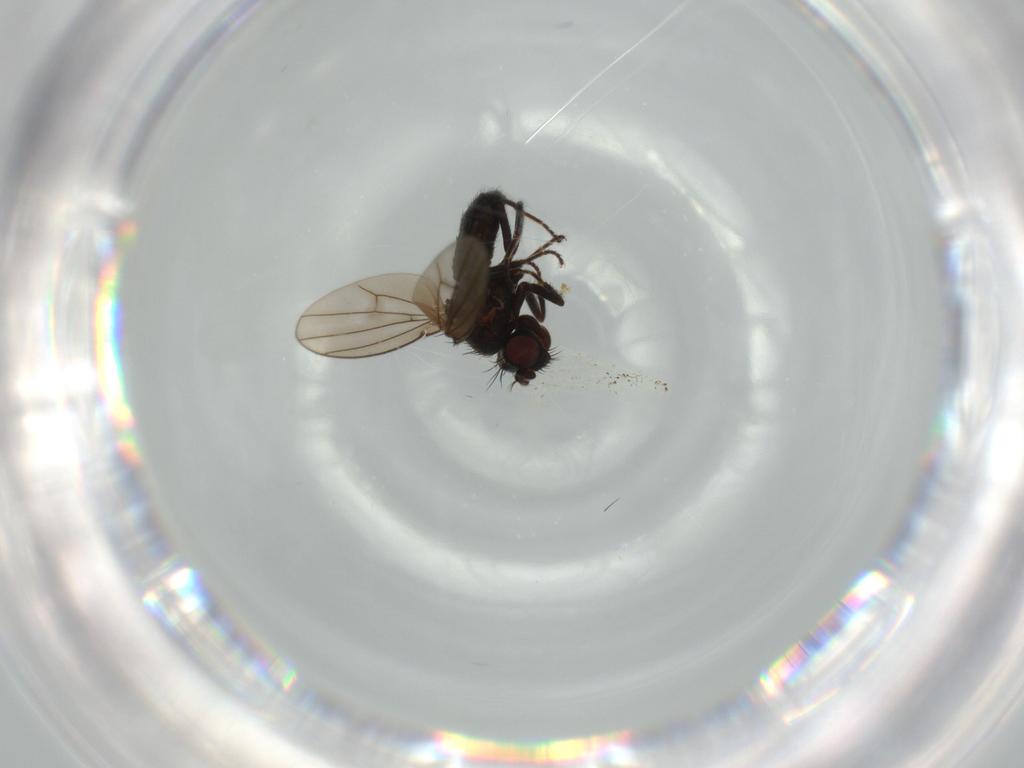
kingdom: Animalia
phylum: Arthropoda
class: Insecta
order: Diptera
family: Ephydridae
